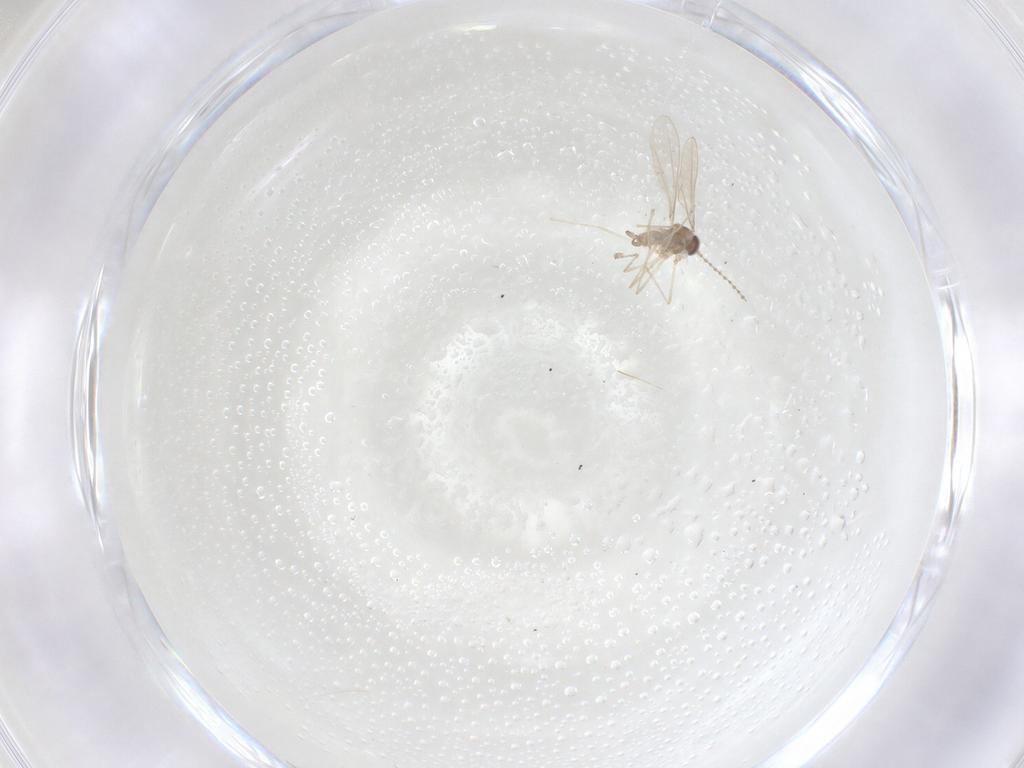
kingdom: Animalia
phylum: Arthropoda
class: Insecta
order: Diptera
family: Cecidomyiidae
